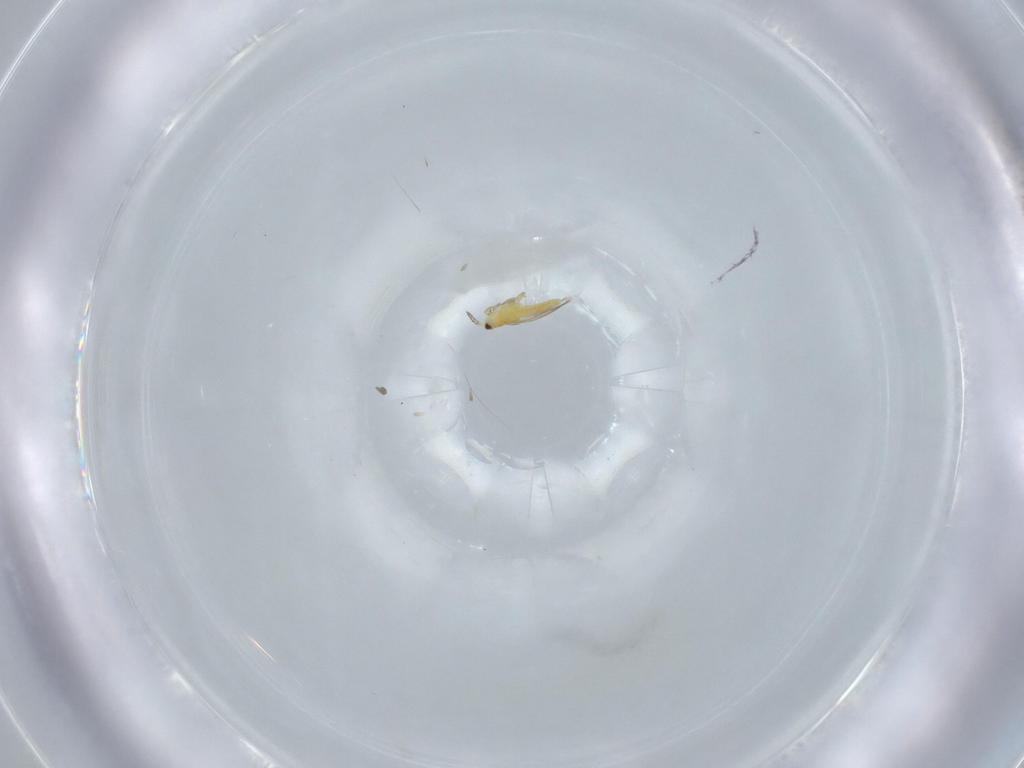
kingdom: Animalia
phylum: Arthropoda
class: Insecta
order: Thysanoptera
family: Thripidae
